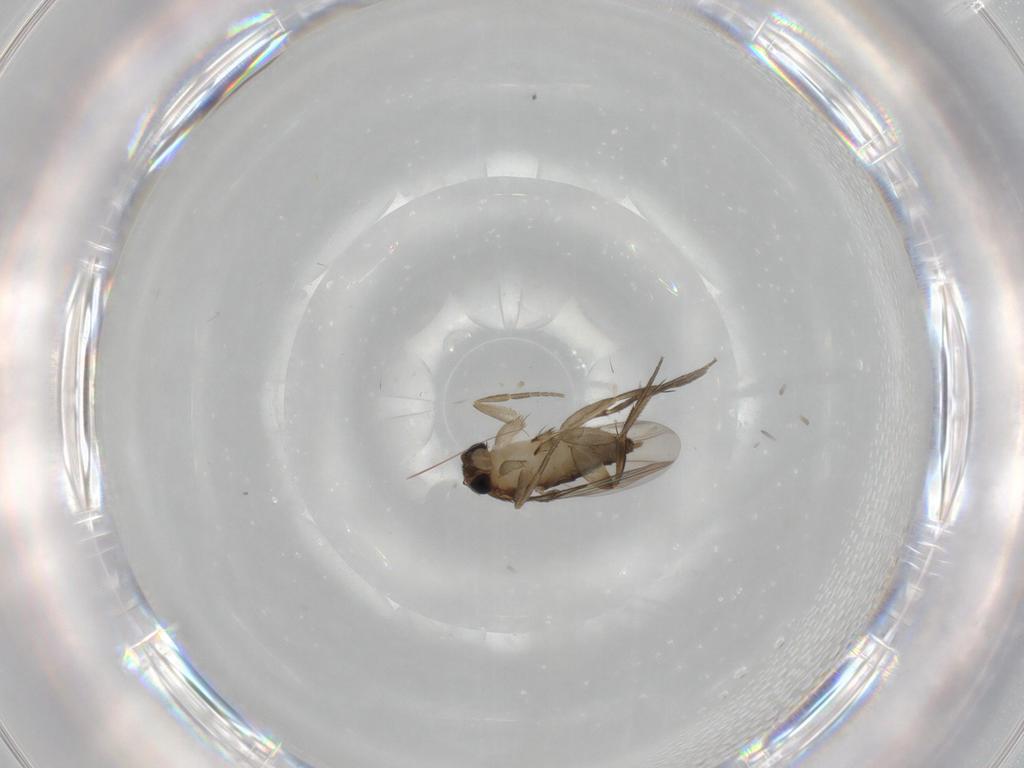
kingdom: Animalia
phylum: Arthropoda
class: Insecta
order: Diptera
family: Phoridae
